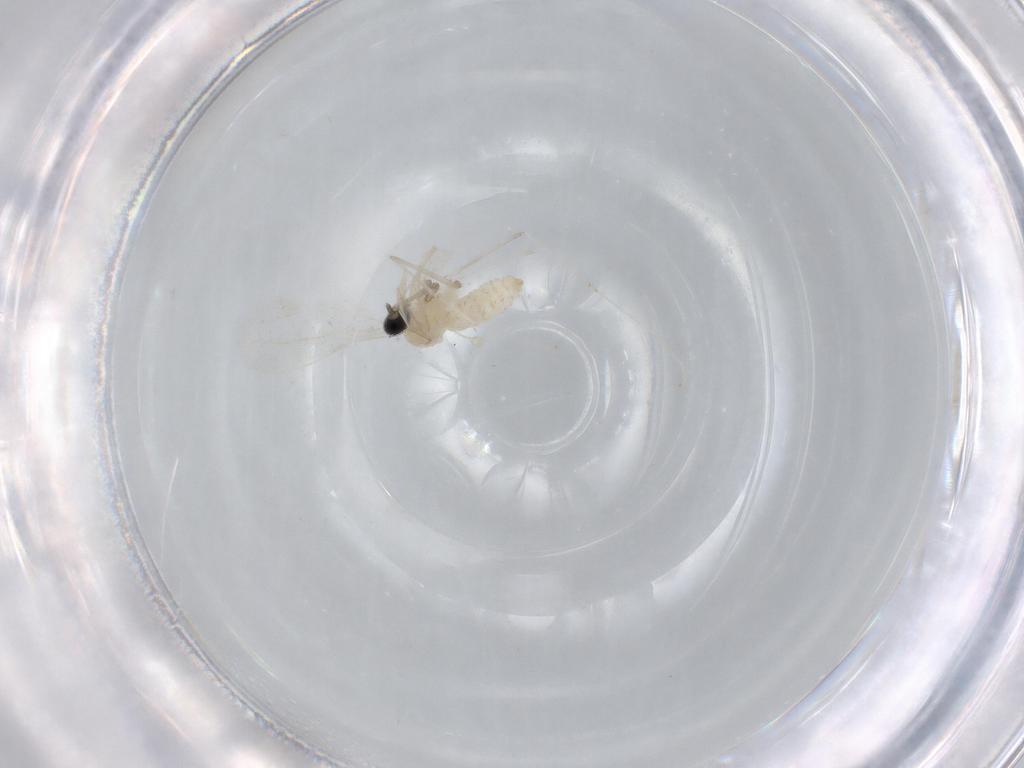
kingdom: Animalia
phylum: Arthropoda
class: Insecta
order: Diptera
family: Cecidomyiidae
